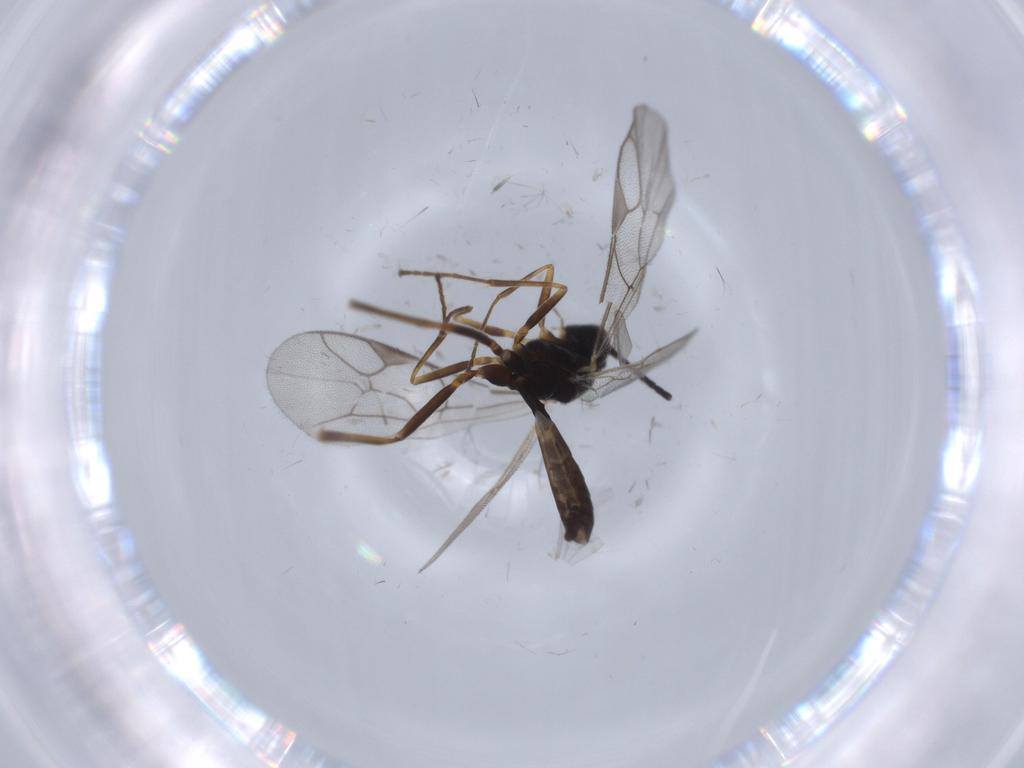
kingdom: Animalia
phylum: Arthropoda
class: Insecta
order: Hymenoptera
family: Ichneumonidae
